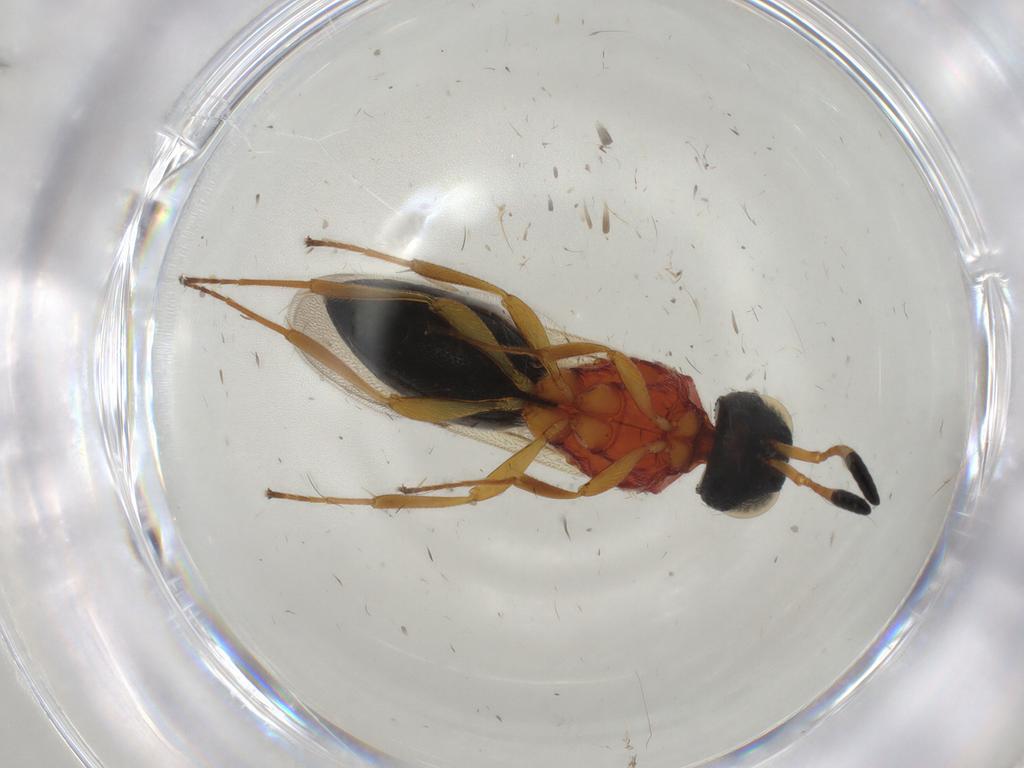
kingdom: Animalia
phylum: Arthropoda
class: Insecta
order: Hymenoptera
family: Scelionidae
